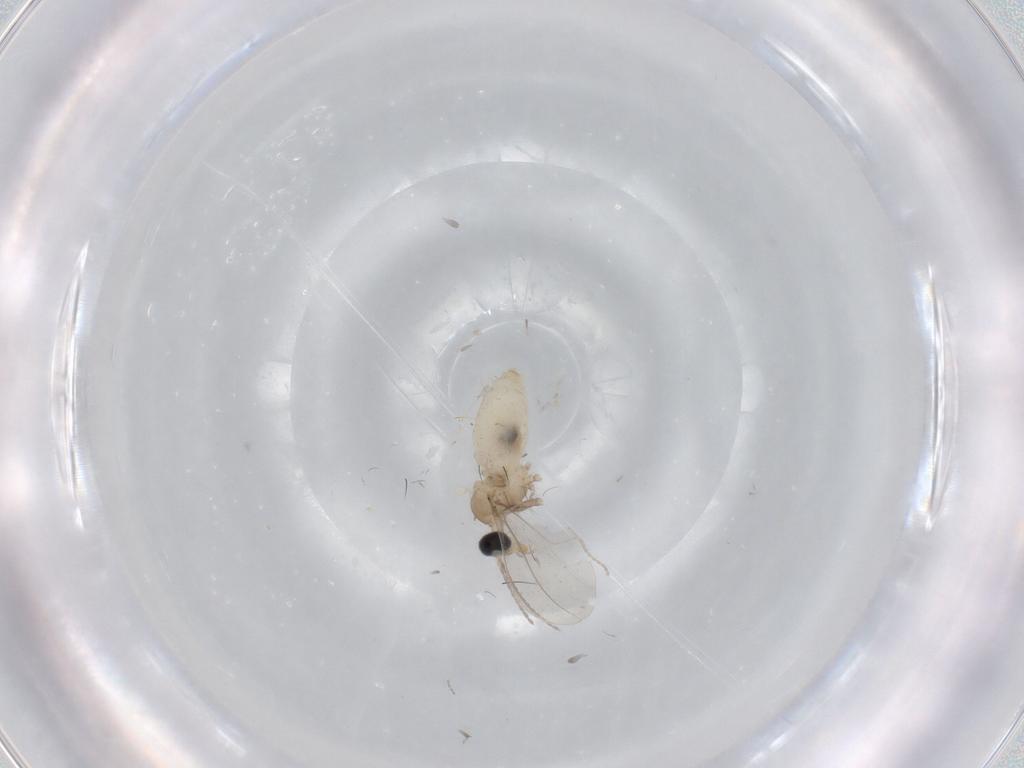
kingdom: Animalia
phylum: Arthropoda
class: Insecta
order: Diptera
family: Cecidomyiidae
